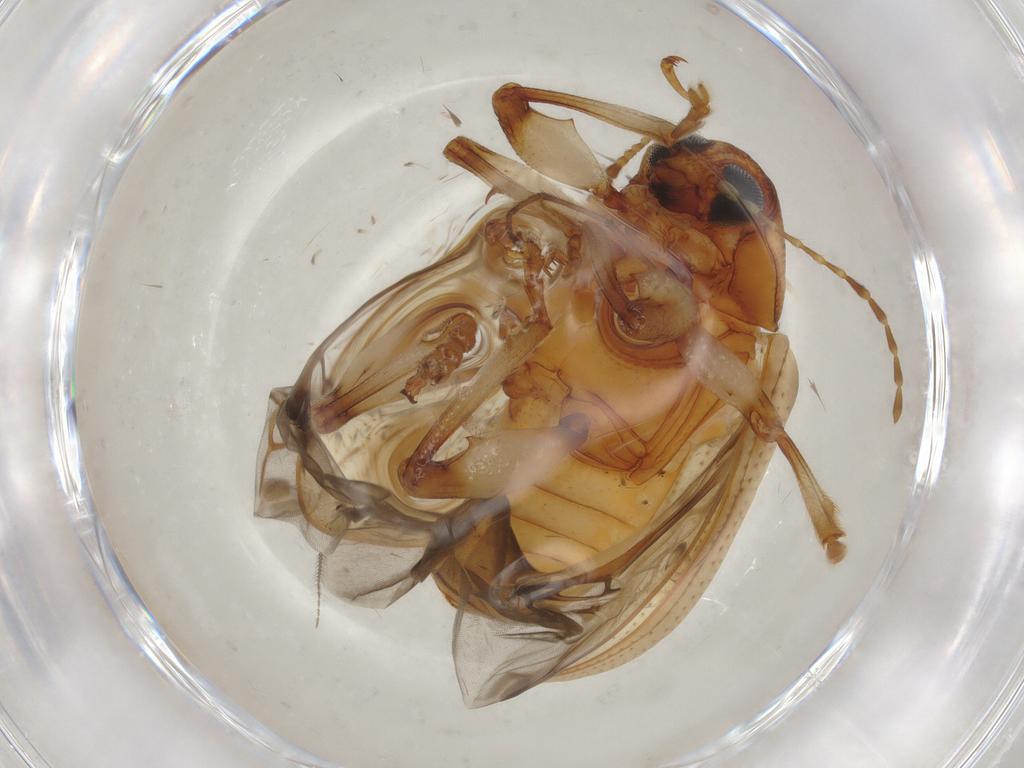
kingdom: Animalia
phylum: Arthropoda
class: Insecta
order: Coleoptera
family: Chrysomelidae
